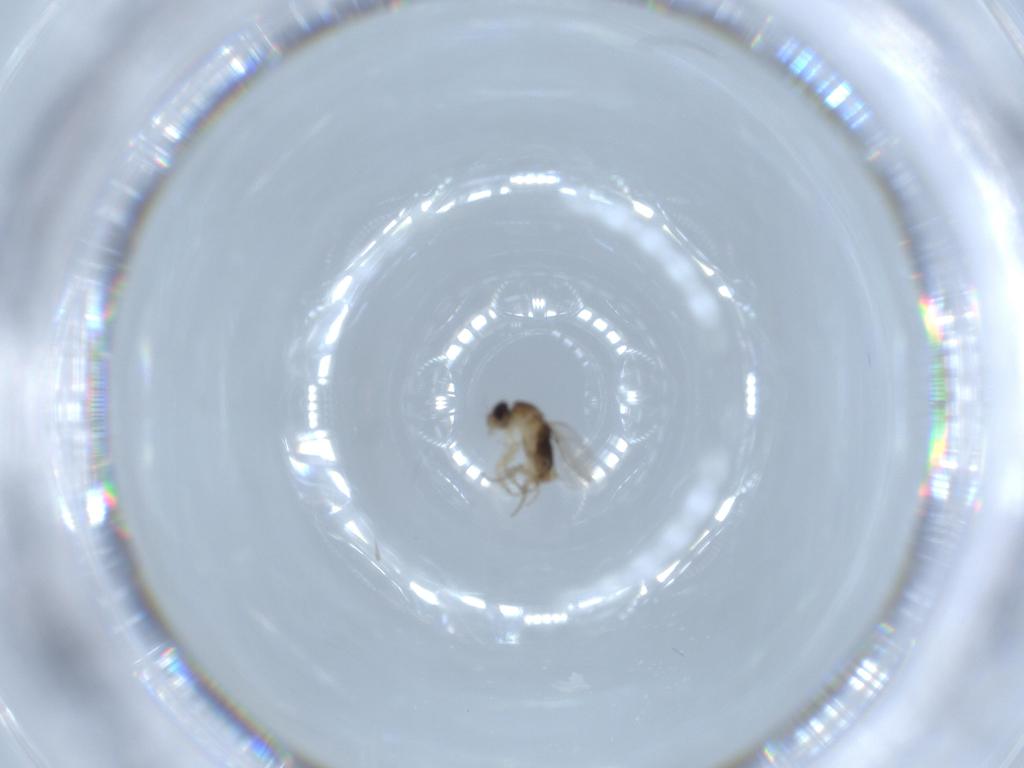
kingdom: Animalia
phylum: Arthropoda
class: Insecta
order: Diptera
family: Phoridae
